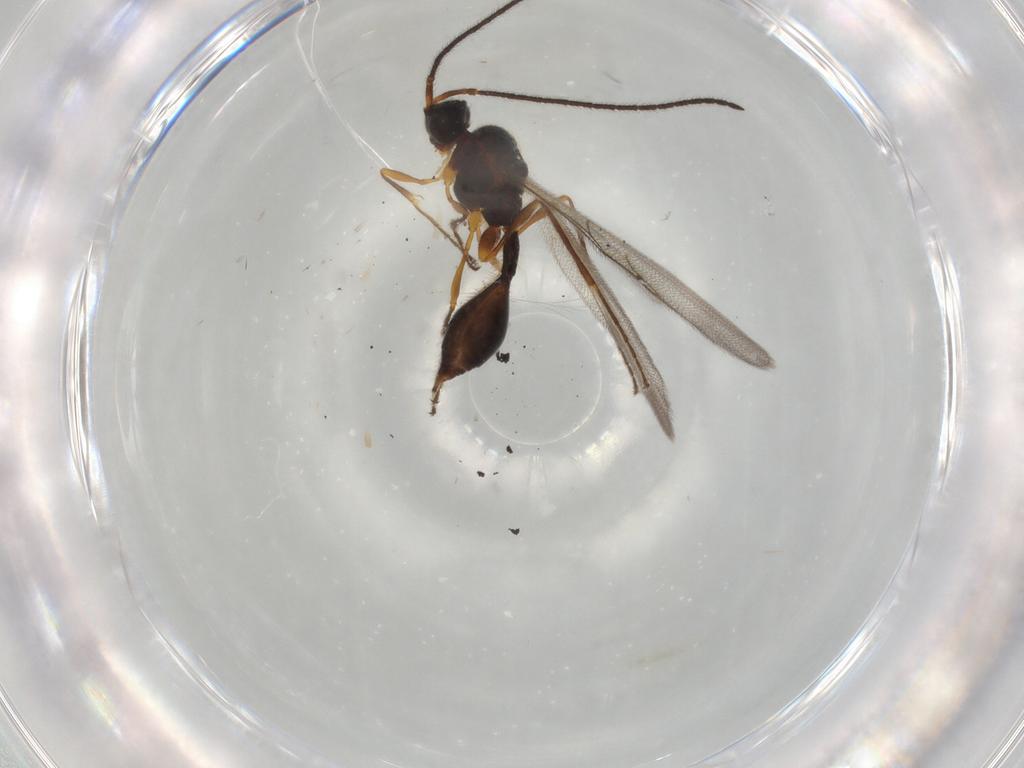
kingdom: Animalia
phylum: Arthropoda
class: Insecta
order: Hymenoptera
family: Diapriidae
